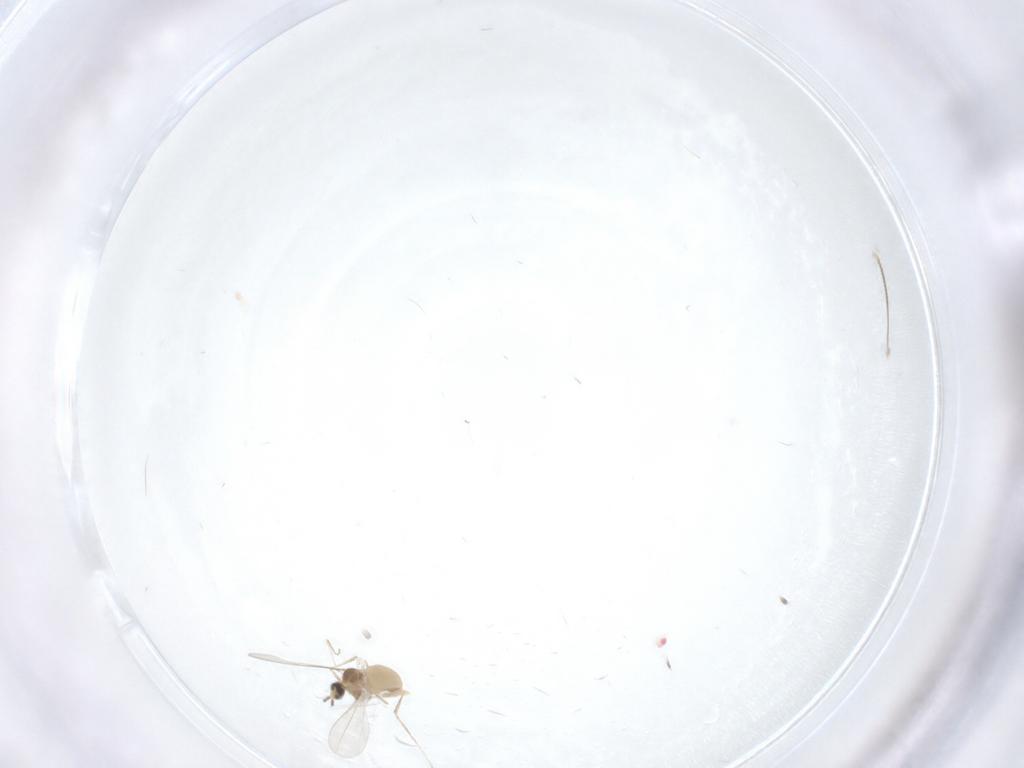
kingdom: Animalia
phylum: Arthropoda
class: Insecta
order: Diptera
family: Cecidomyiidae
